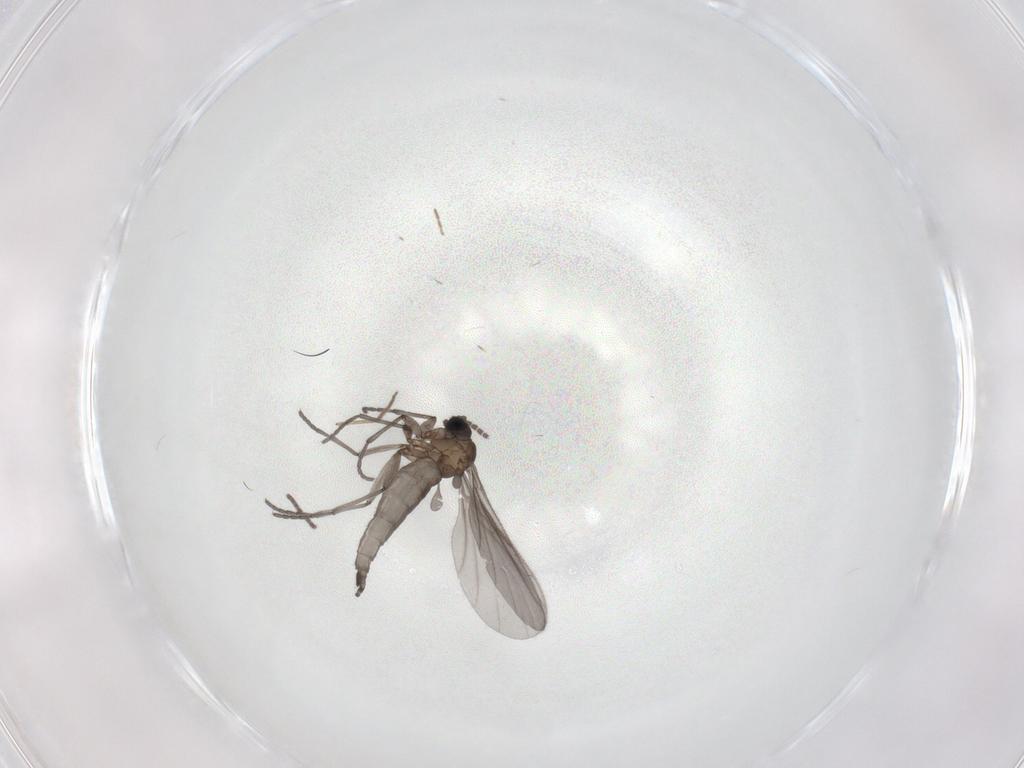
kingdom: Animalia
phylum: Arthropoda
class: Insecta
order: Diptera
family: Sciaridae
